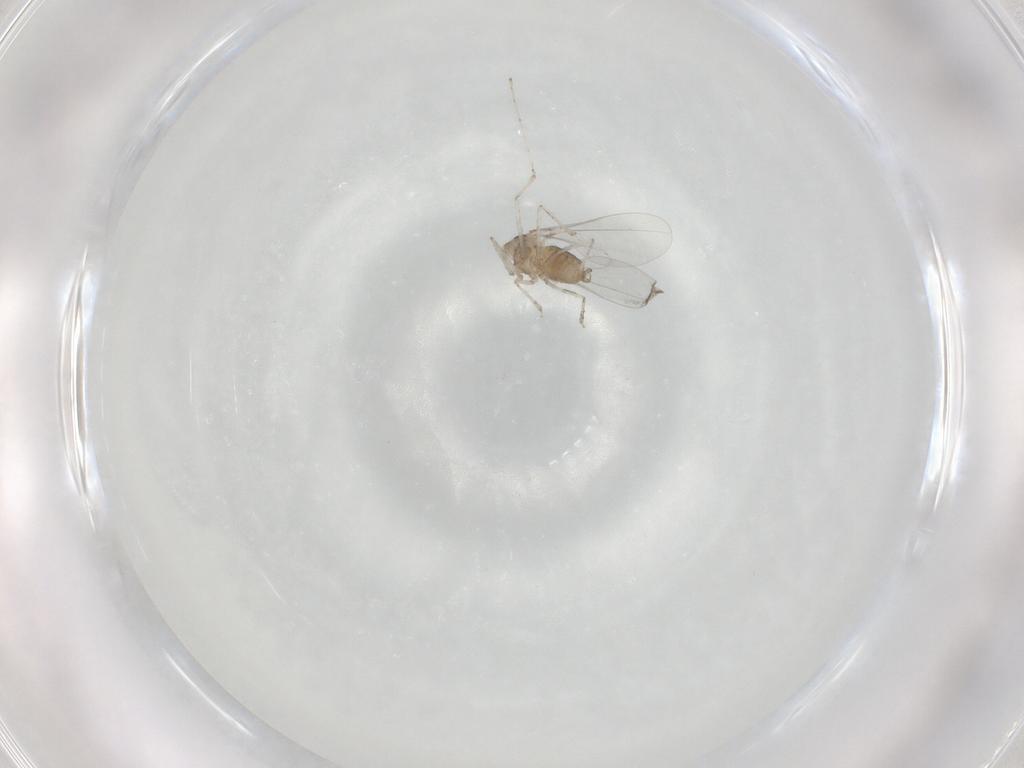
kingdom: Animalia
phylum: Arthropoda
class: Insecta
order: Diptera
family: Cecidomyiidae
